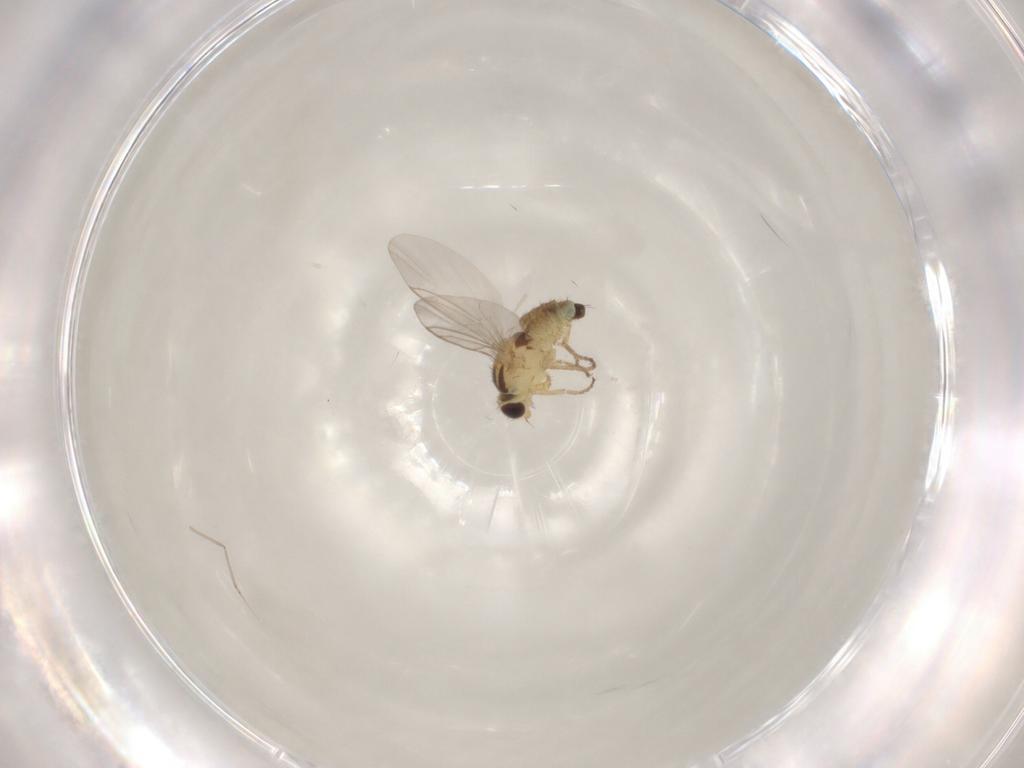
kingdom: Animalia
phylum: Arthropoda
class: Insecta
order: Diptera
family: Agromyzidae
